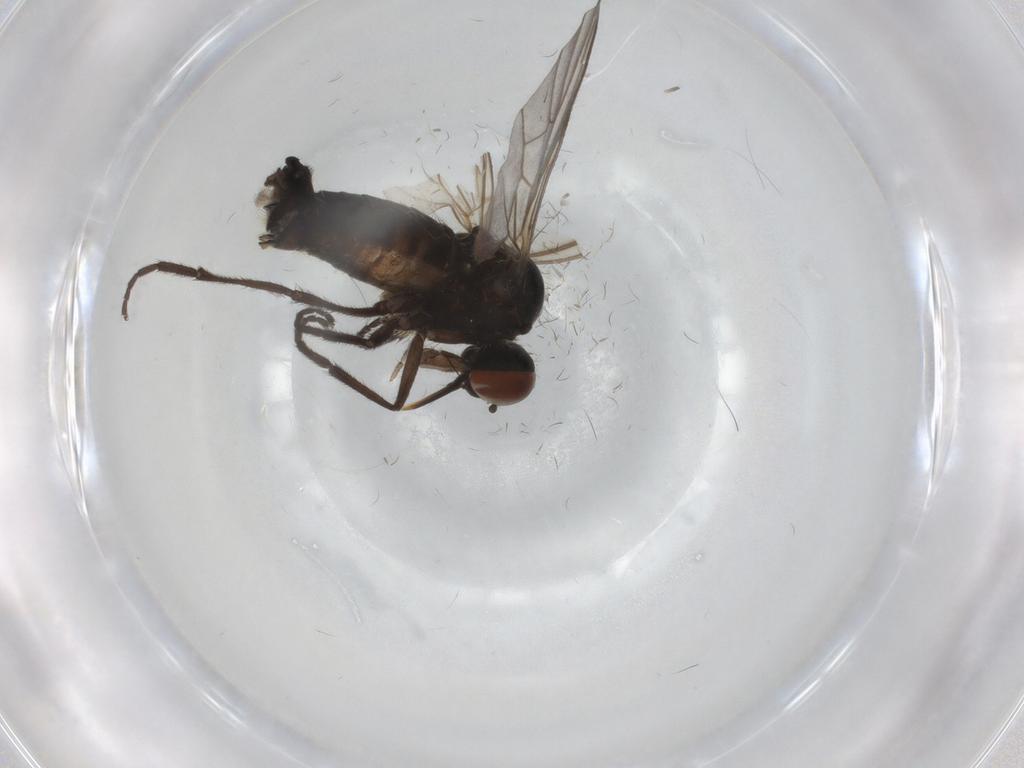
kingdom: Animalia
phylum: Arthropoda
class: Insecta
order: Diptera
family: Empididae
